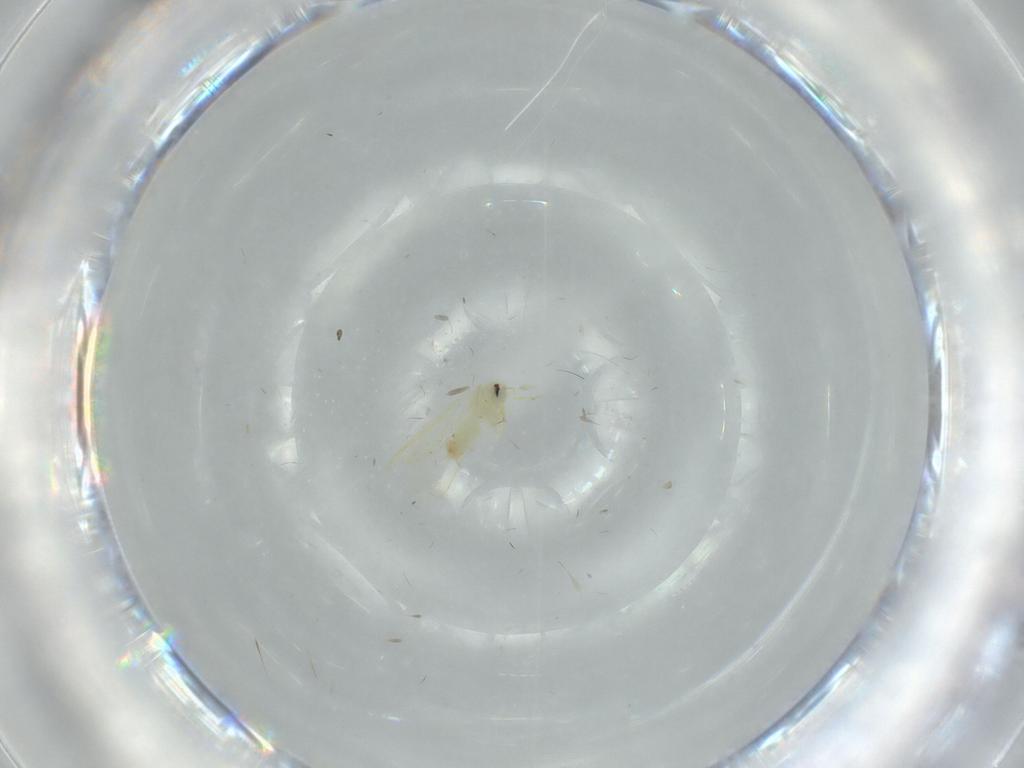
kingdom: Animalia
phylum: Arthropoda
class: Insecta
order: Hemiptera
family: Aleyrodidae
